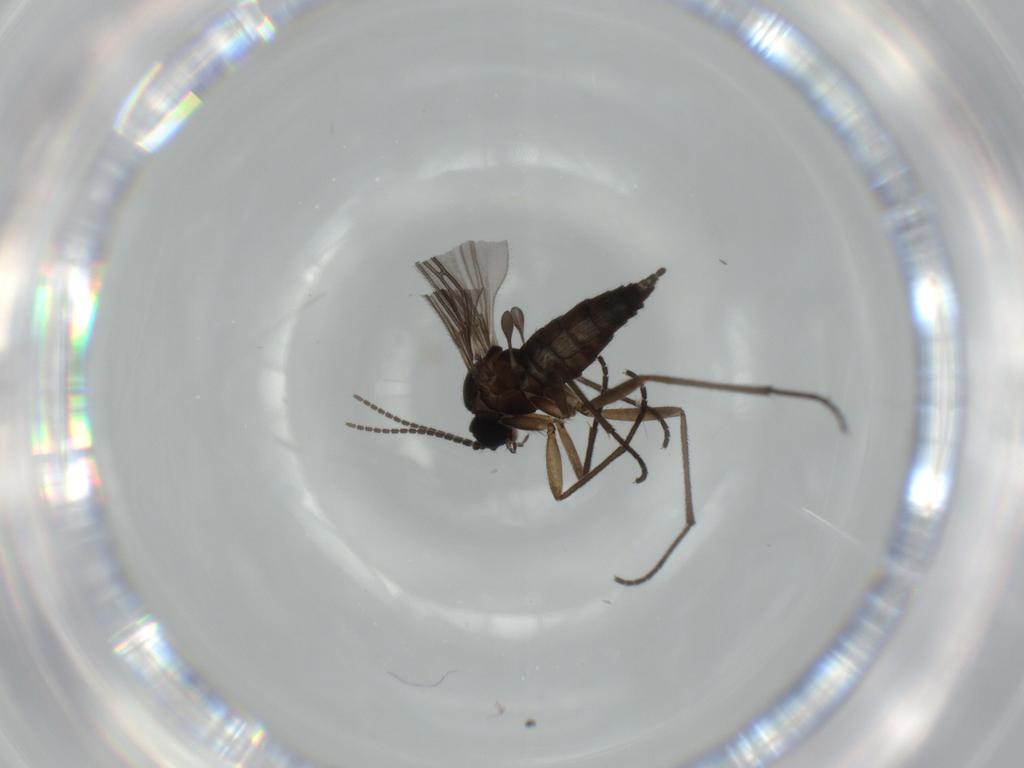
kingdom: Animalia
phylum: Arthropoda
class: Insecta
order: Diptera
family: Sciaridae
